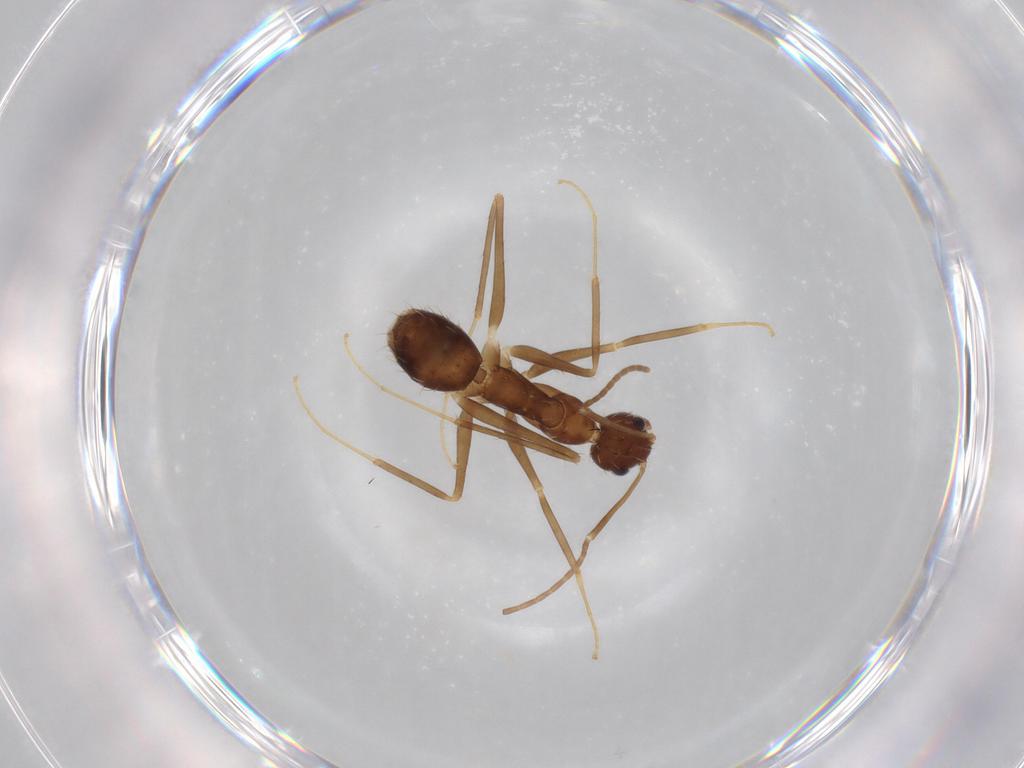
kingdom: Animalia
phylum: Arthropoda
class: Insecta
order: Hymenoptera
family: Formicidae
